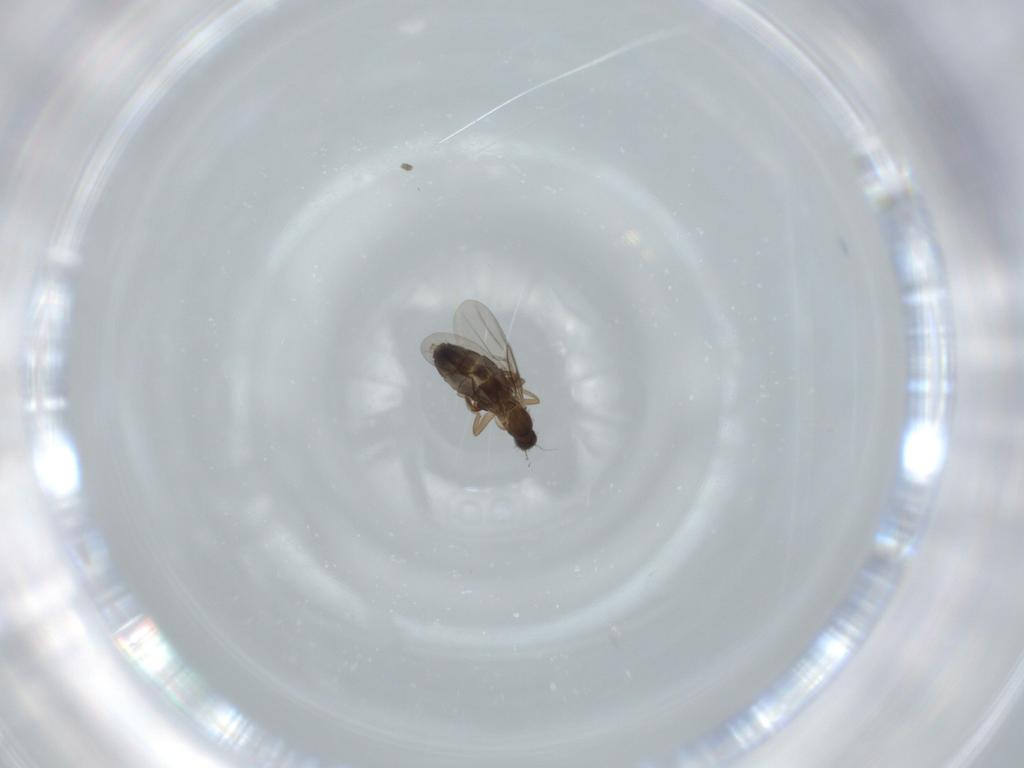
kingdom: Animalia
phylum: Arthropoda
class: Insecta
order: Diptera
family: Phoridae
